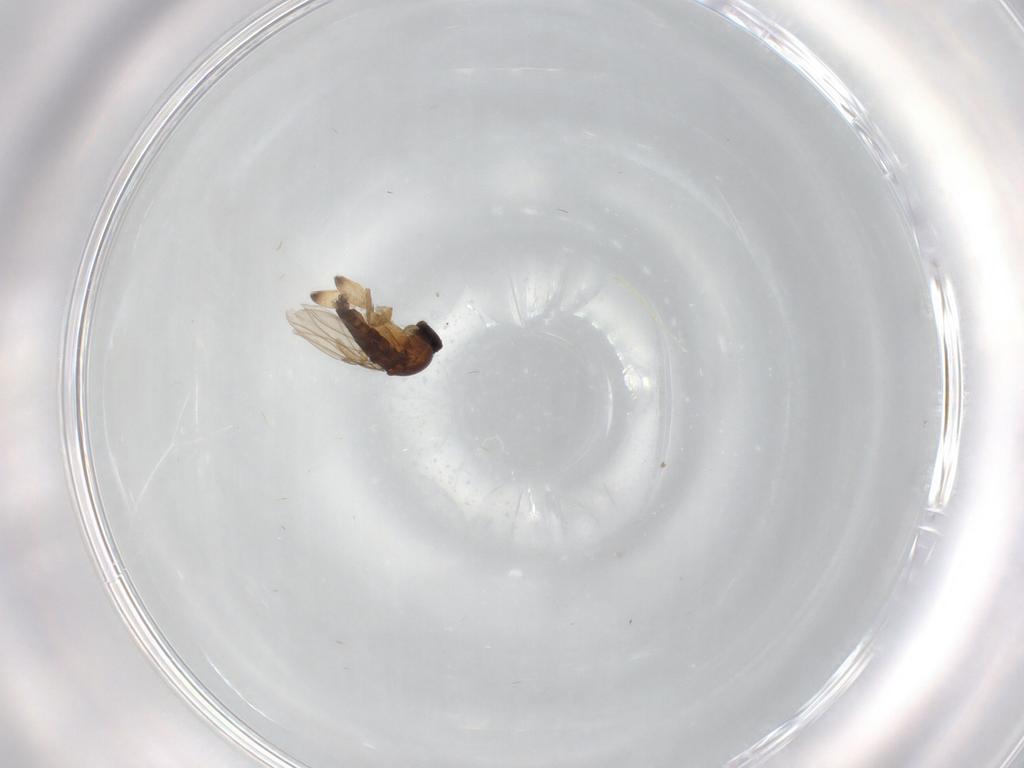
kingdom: Animalia
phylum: Arthropoda
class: Insecta
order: Diptera
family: Phoridae
